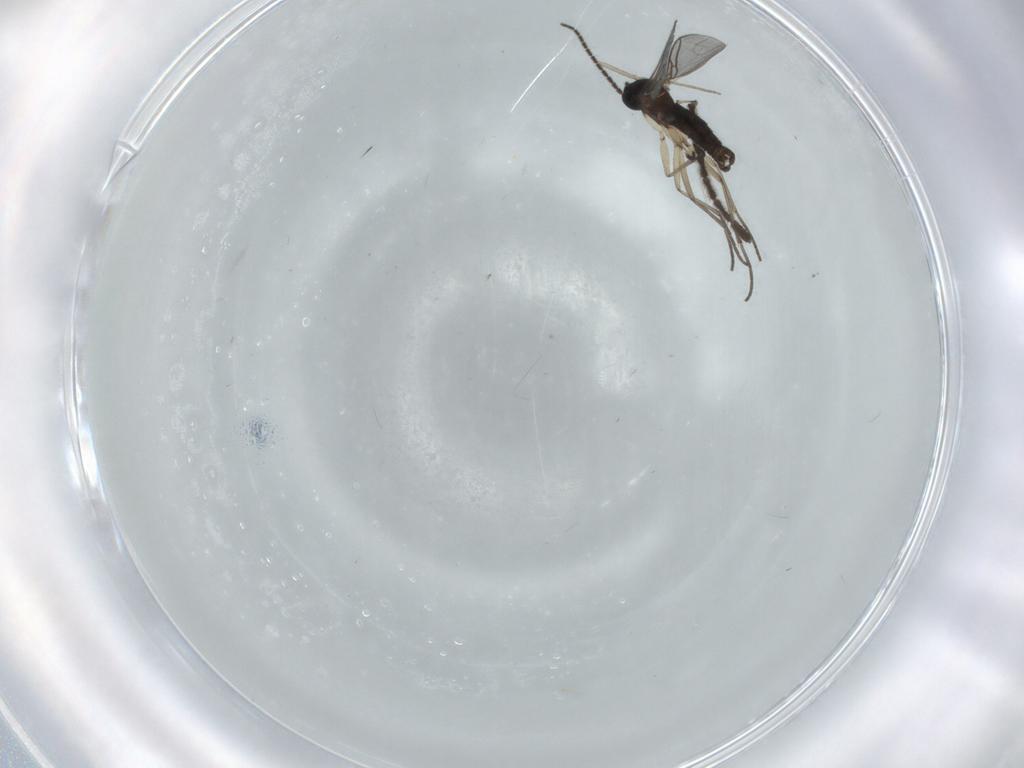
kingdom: Animalia
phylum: Arthropoda
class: Insecta
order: Diptera
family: Sciaridae
